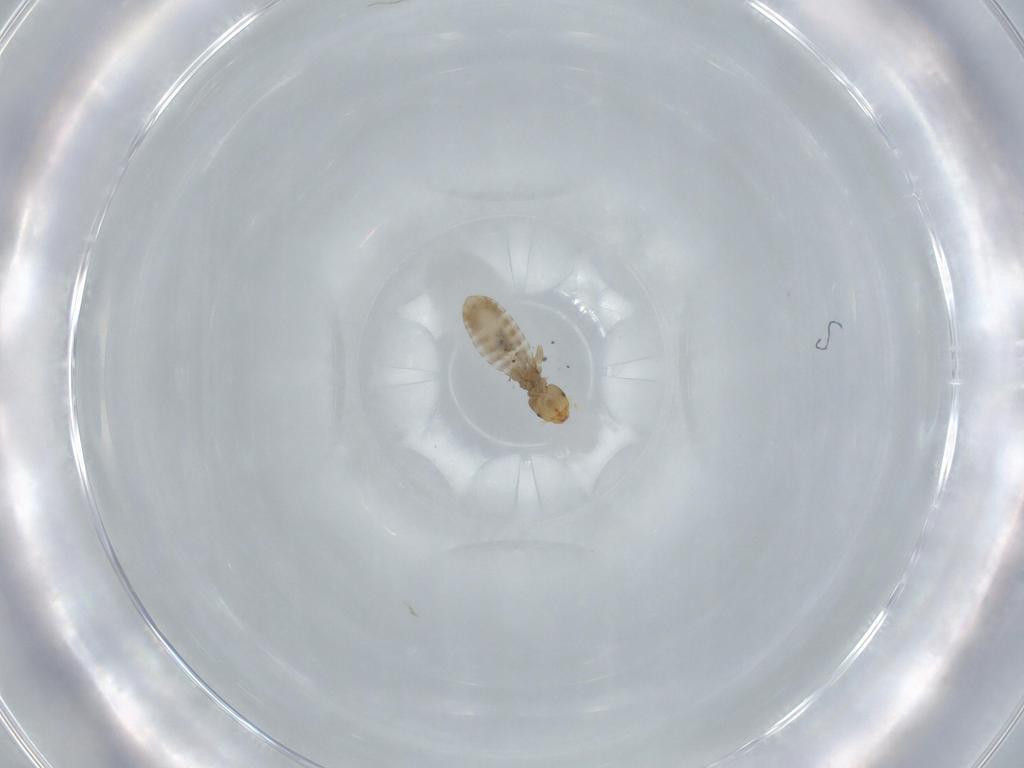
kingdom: Animalia
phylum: Arthropoda
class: Insecta
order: Psocodea
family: Liposcelididae
